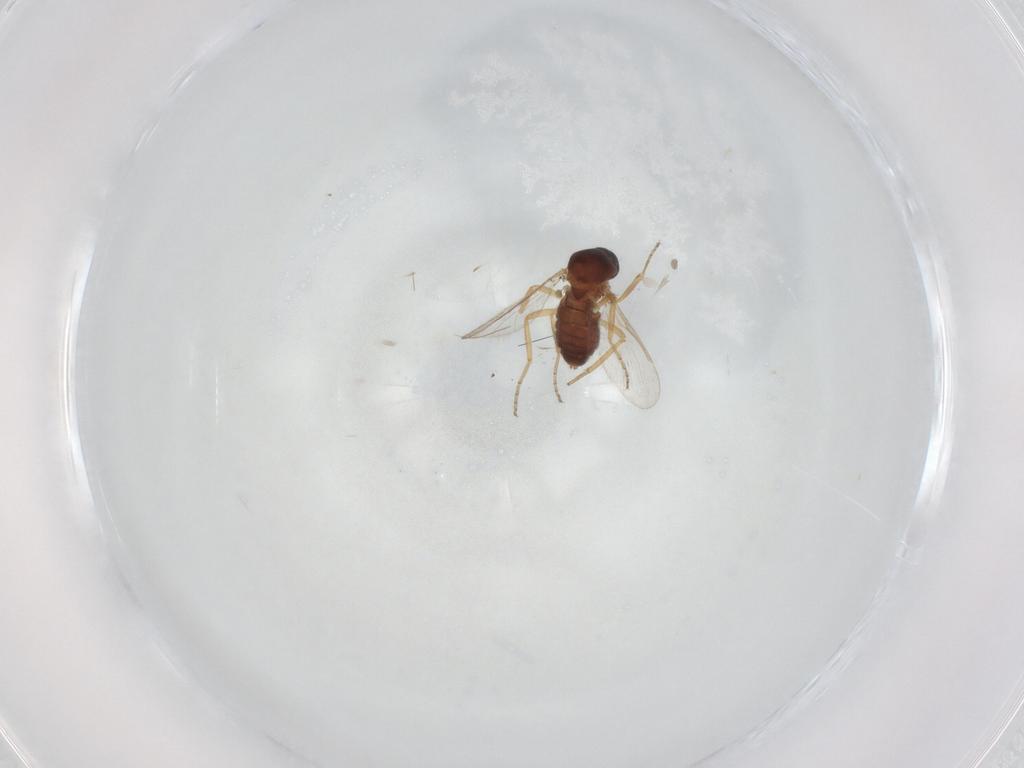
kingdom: Animalia
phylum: Arthropoda
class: Insecta
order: Diptera
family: Ceratopogonidae
